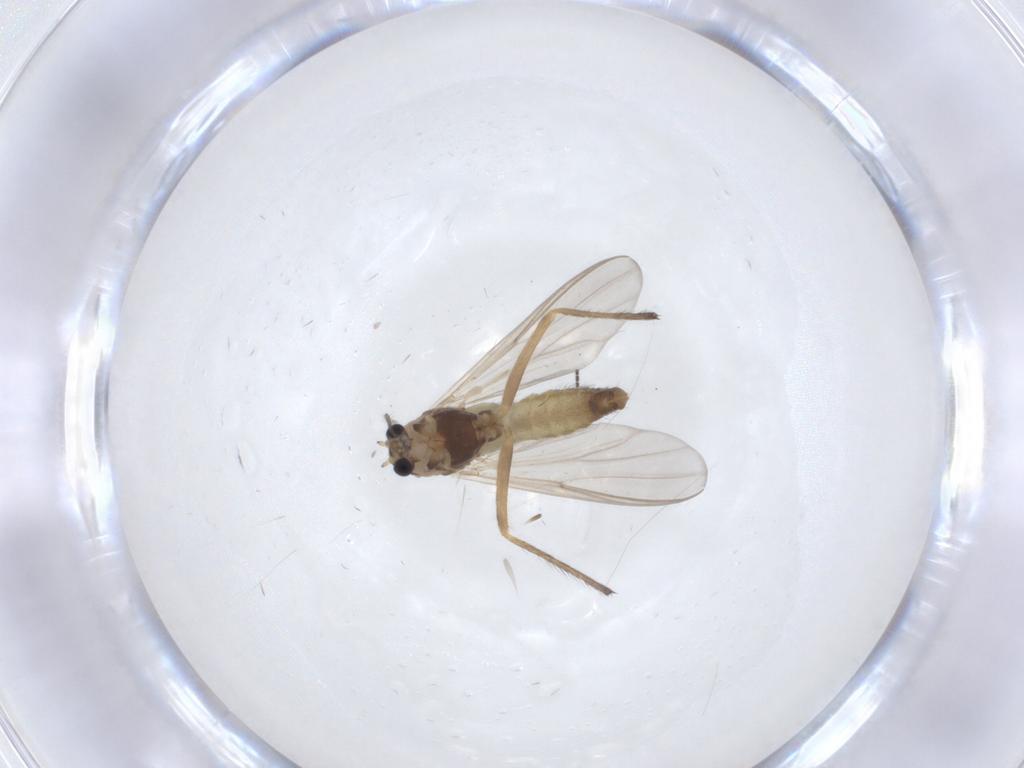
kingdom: Animalia
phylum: Arthropoda
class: Insecta
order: Diptera
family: Chironomidae
